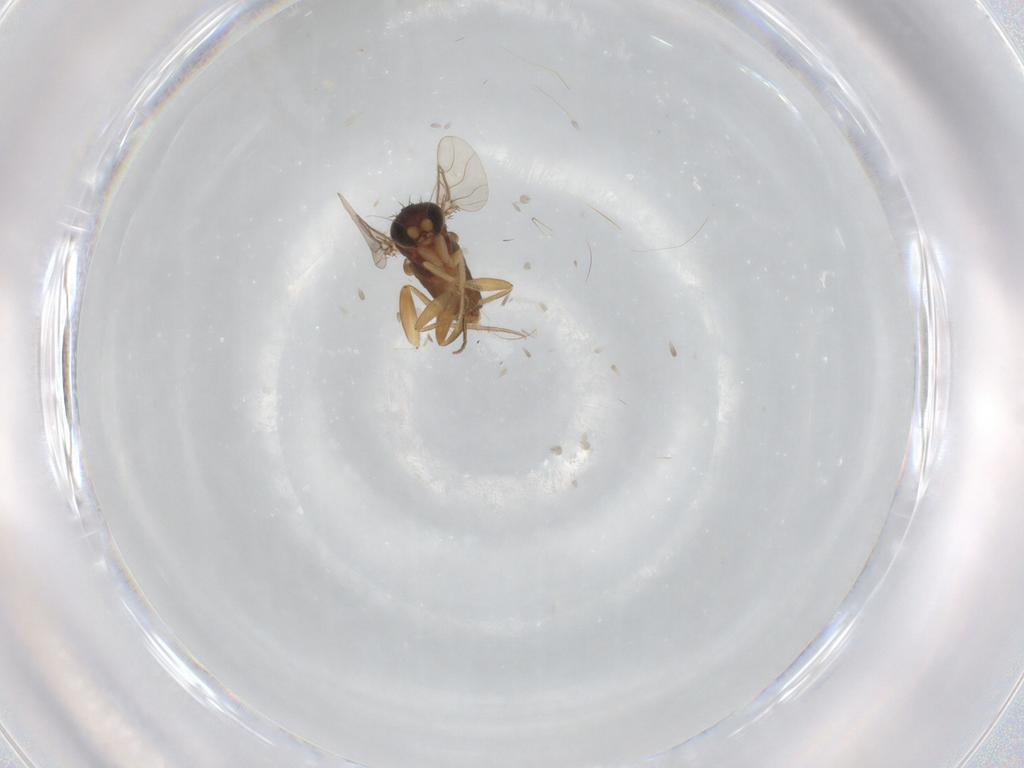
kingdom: Animalia
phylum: Arthropoda
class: Insecta
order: Diptera
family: Phoridae
